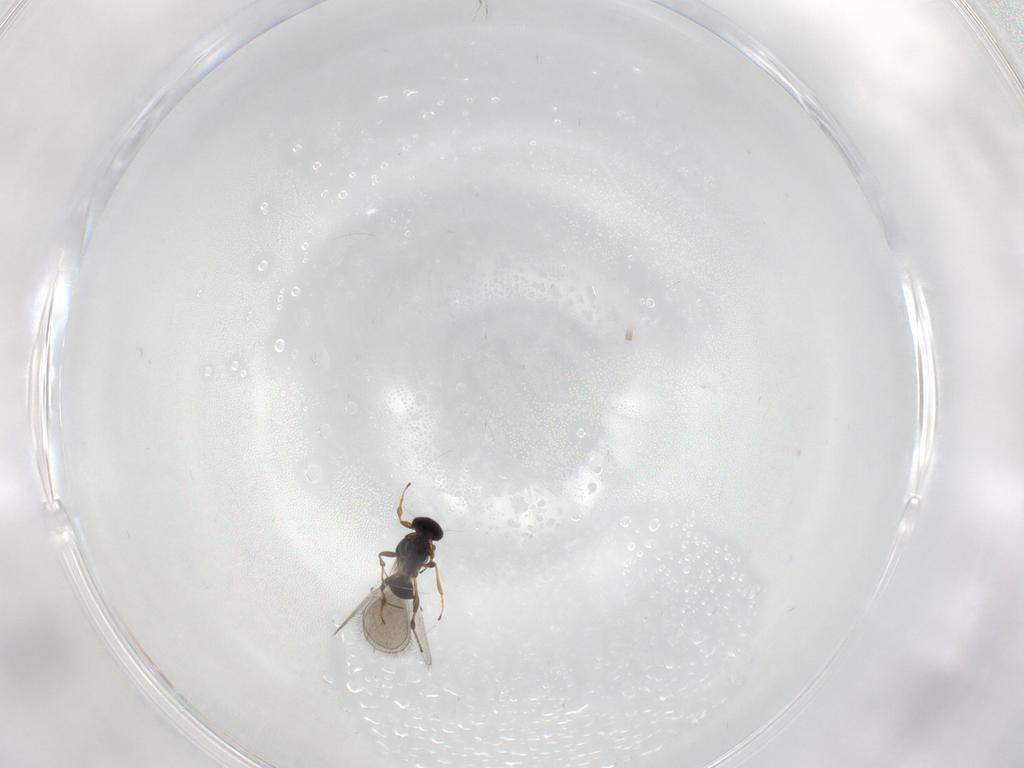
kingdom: Animalia
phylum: Arthropoda
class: Insecta
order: Hymenoptera
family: Platygastridae
